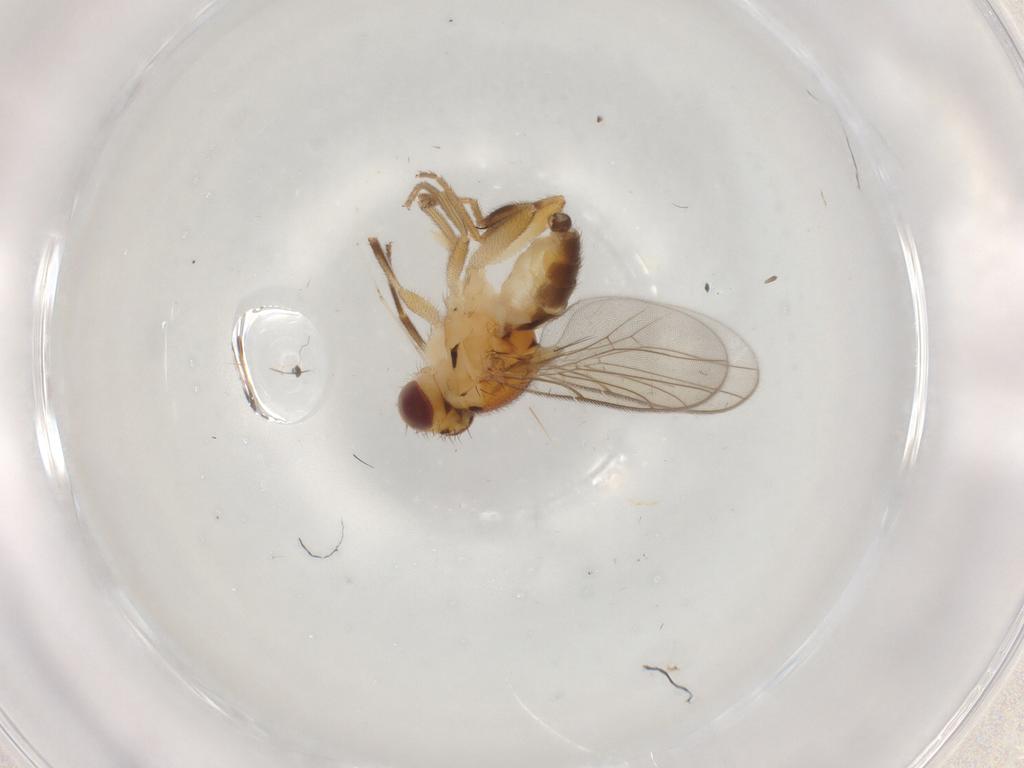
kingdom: Animalia
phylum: Arthropoda
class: Insecta
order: Diptera
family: Chloropidae
